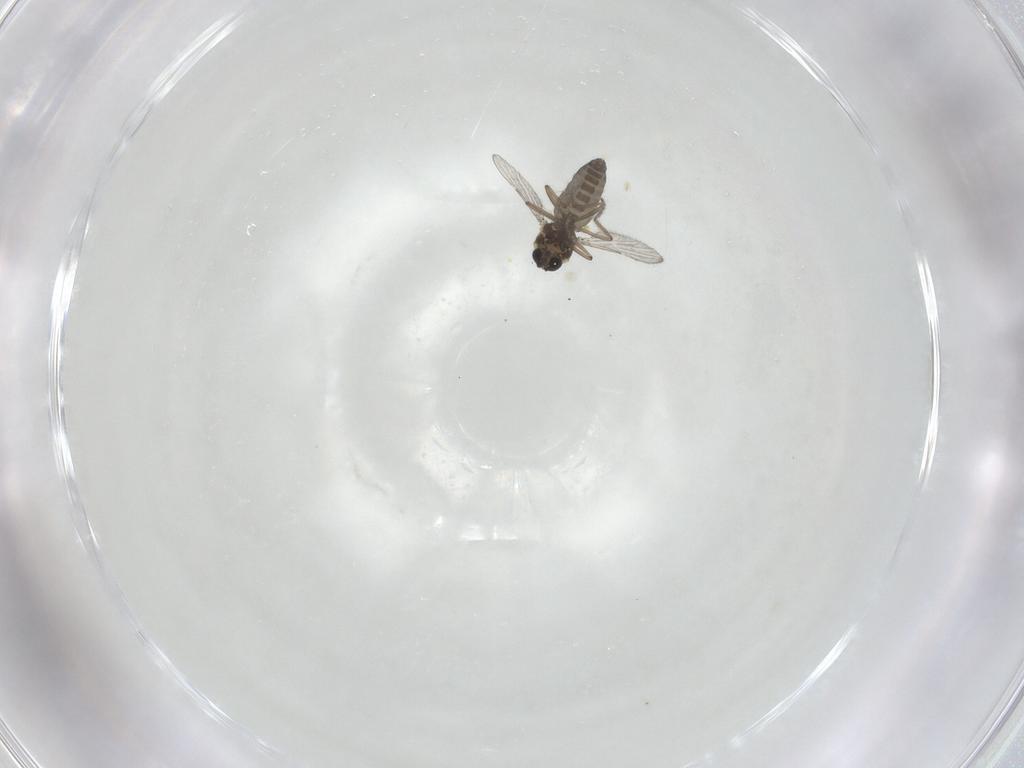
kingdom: Animalia
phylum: Arthropoda
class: Insecta
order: Diptera
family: Ceratopogonidae
